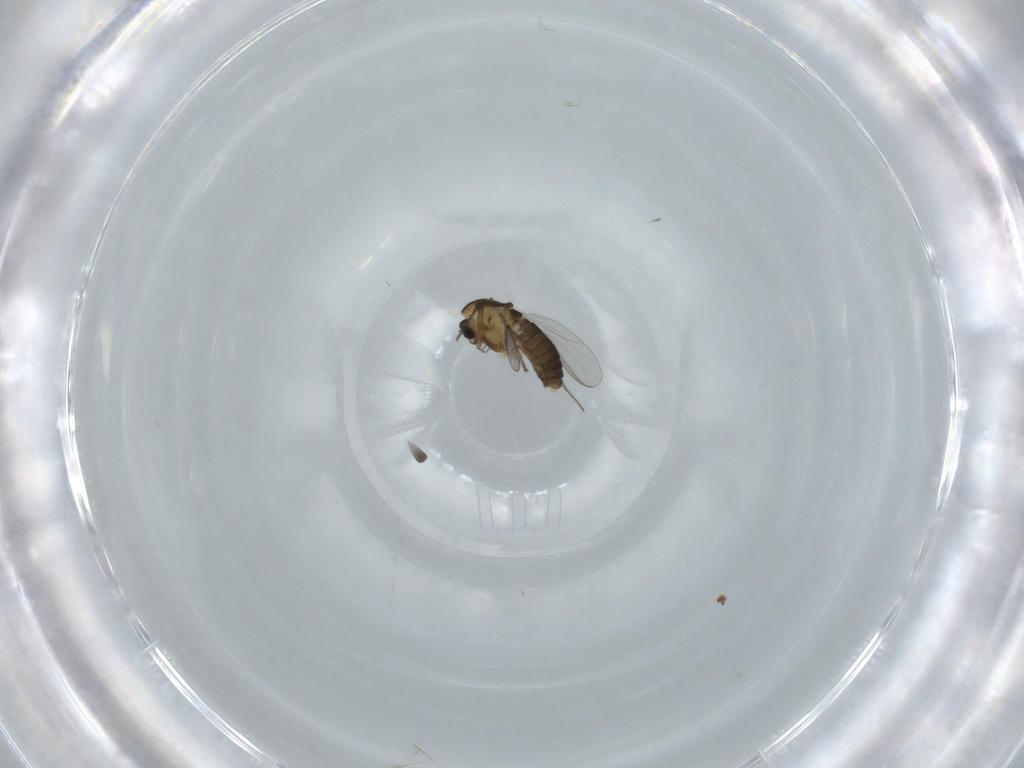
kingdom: Animalia
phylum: Arthropoda
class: Insecta
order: Diptera
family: Chironomidae
